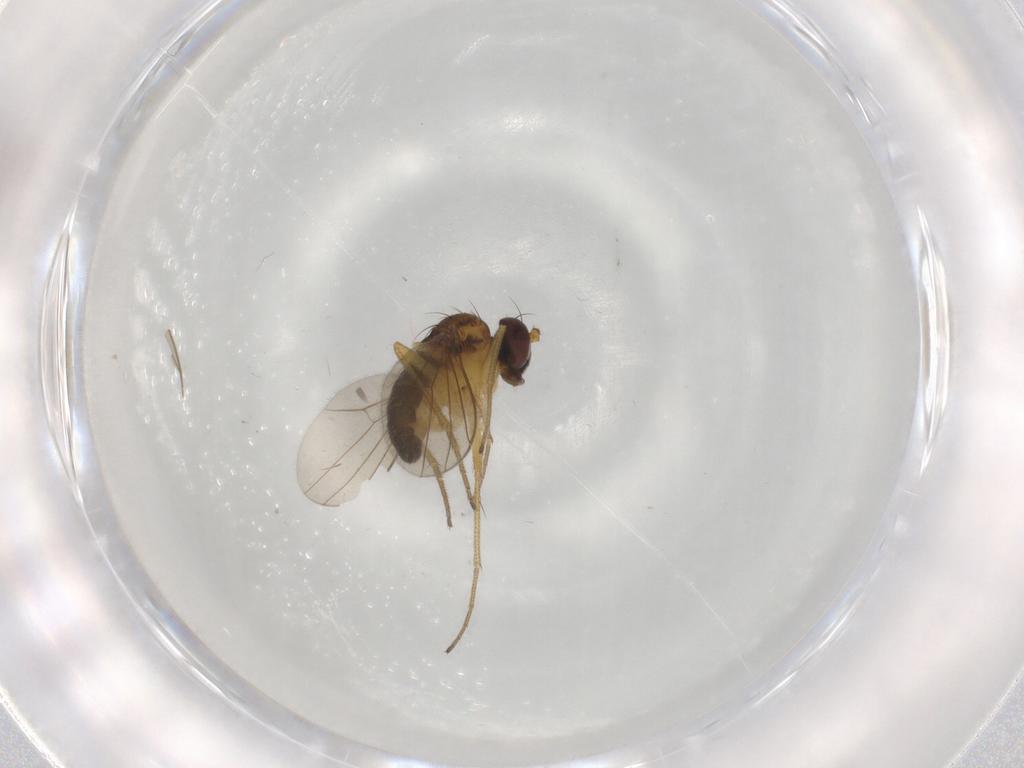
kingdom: Animalia
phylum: Arthropoda
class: Insecta
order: Diptera
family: Dolichopodidae
